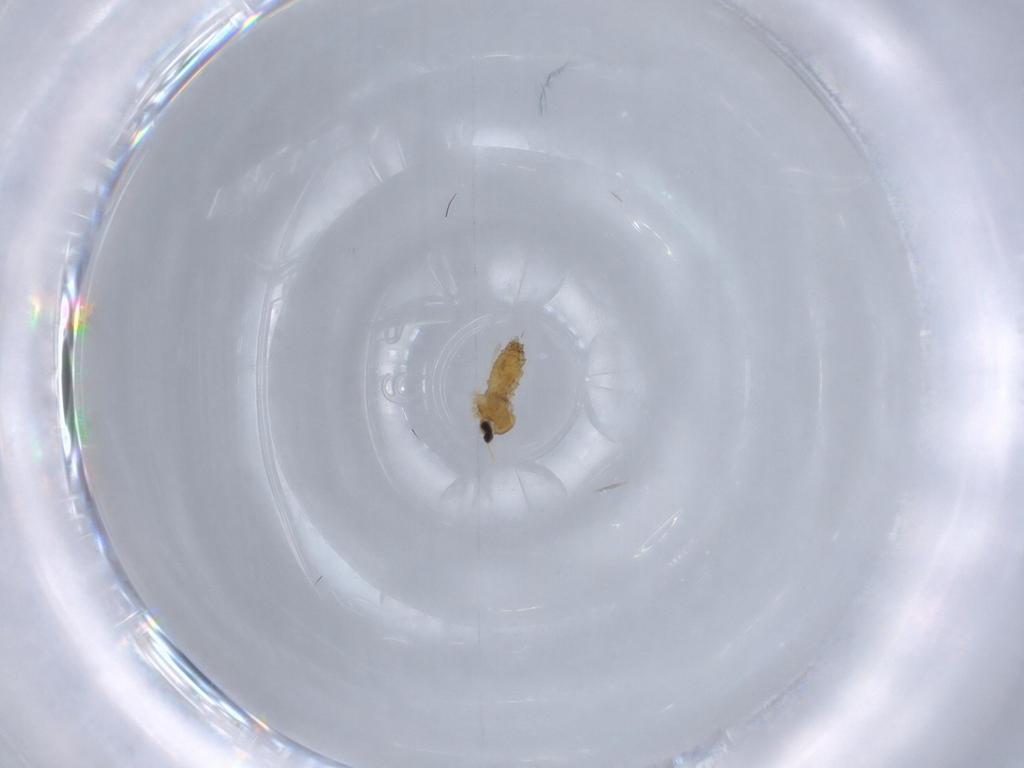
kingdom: Animalia
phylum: Arthropoda
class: Insecta
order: Diptera
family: Cecidomyiidae
